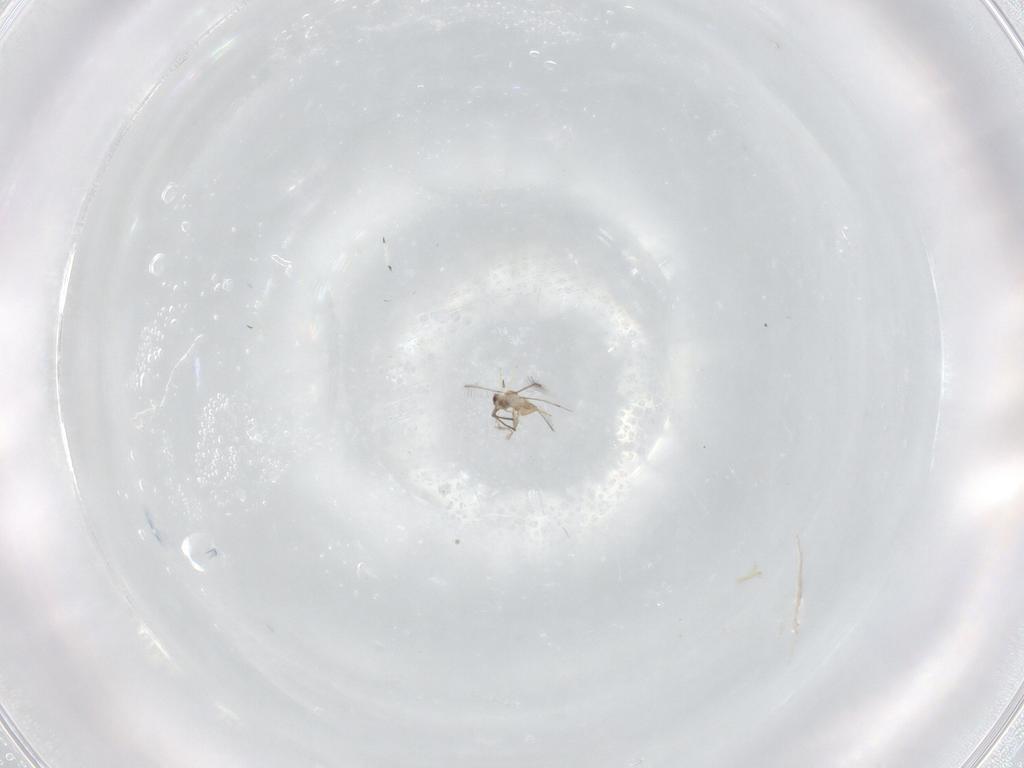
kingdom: Animalia
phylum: Arthropoda
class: Insecta
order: Hymenoptera
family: Mymaridae
